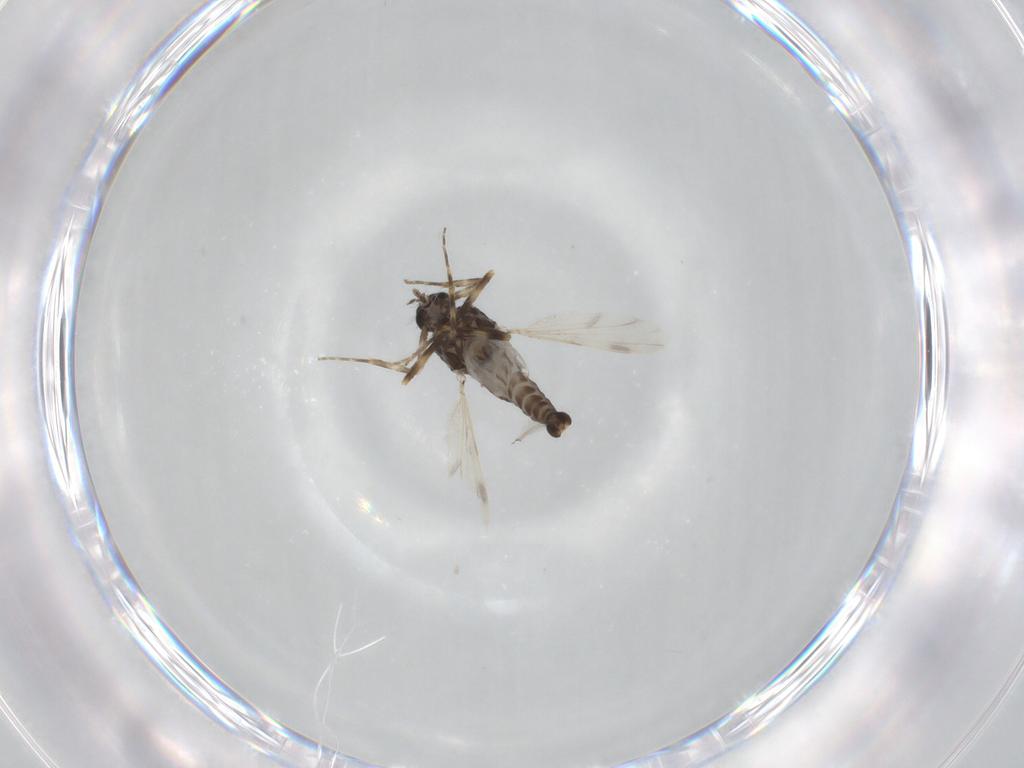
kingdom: Animalia
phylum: Arthropoda
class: Insecta
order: Diptera
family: Ceratopogonidae
